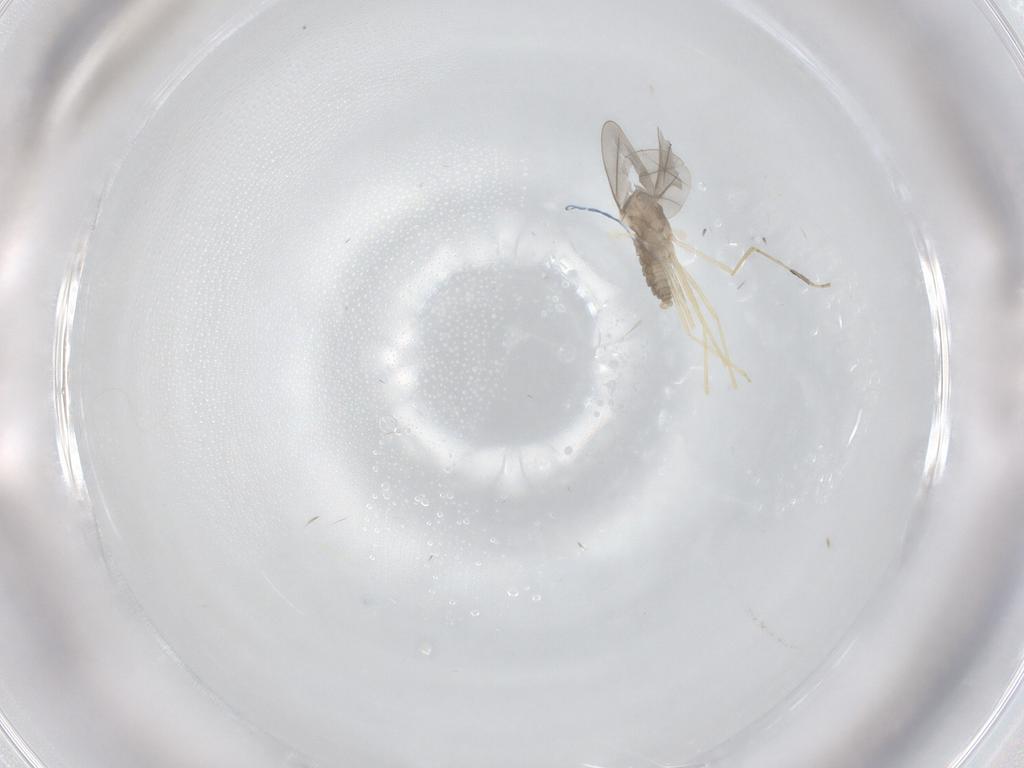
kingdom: Animalia
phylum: Arthropoda
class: Insecta
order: Diptera
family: Cecidomyiidae
